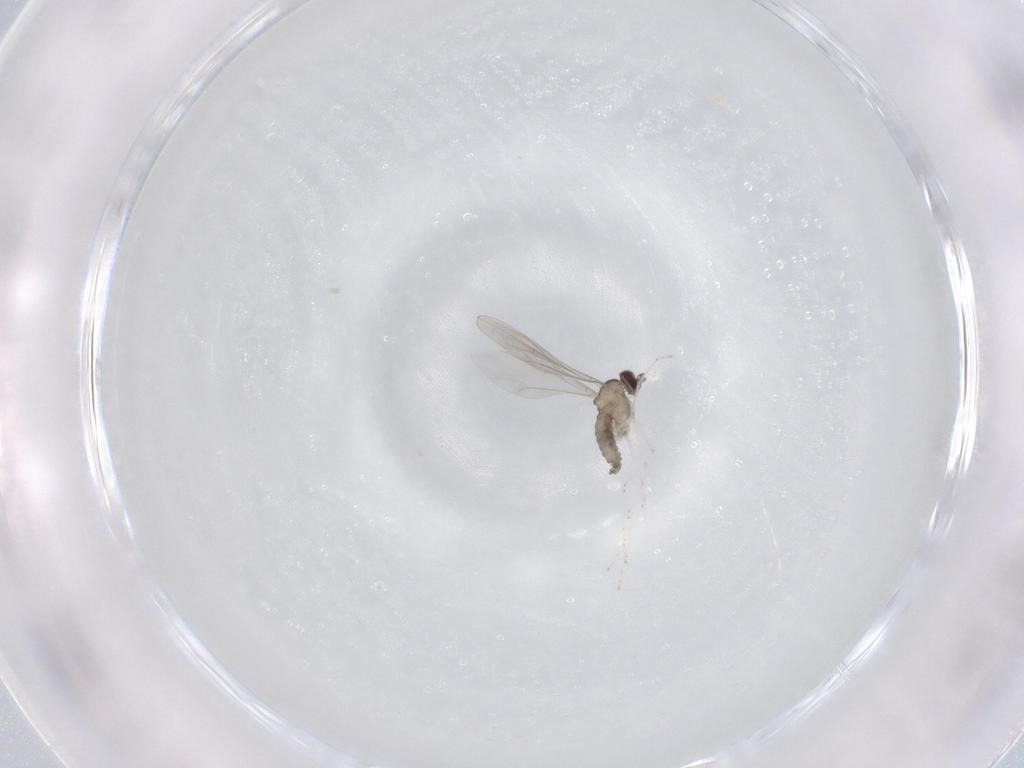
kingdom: Animalia
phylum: Arthropoda
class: Insecta
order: Diptera
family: Cecidomyiidae
